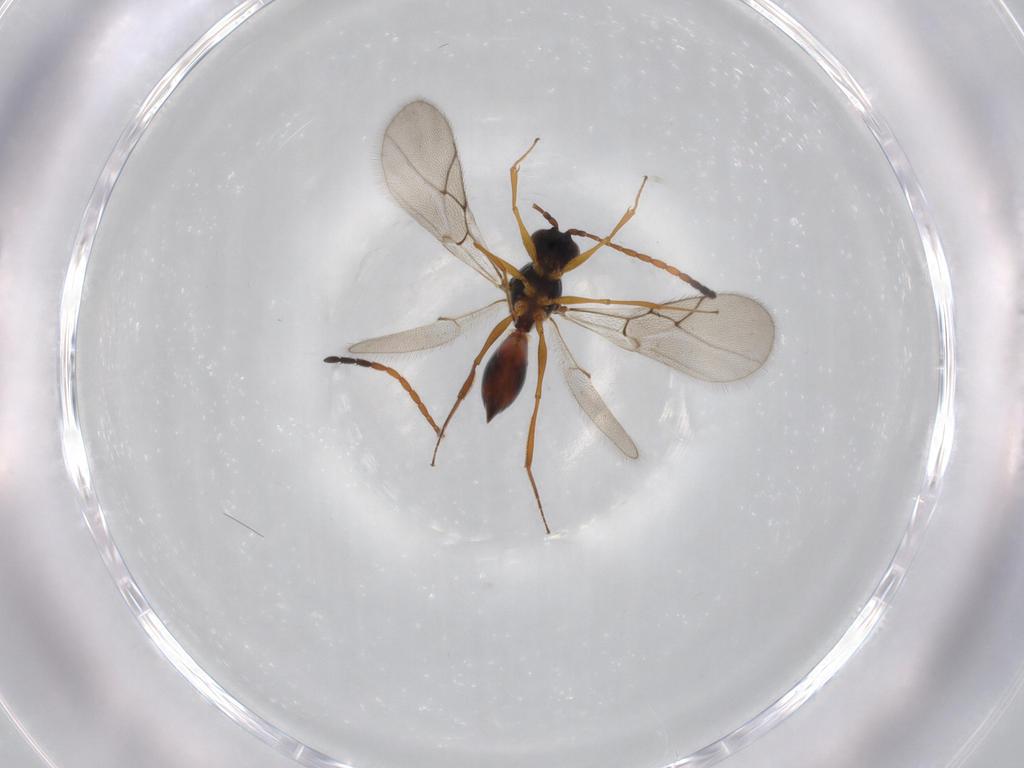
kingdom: Animalia
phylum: Arthropoda
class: Insecta
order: Hymenoptera
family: Figitidae
